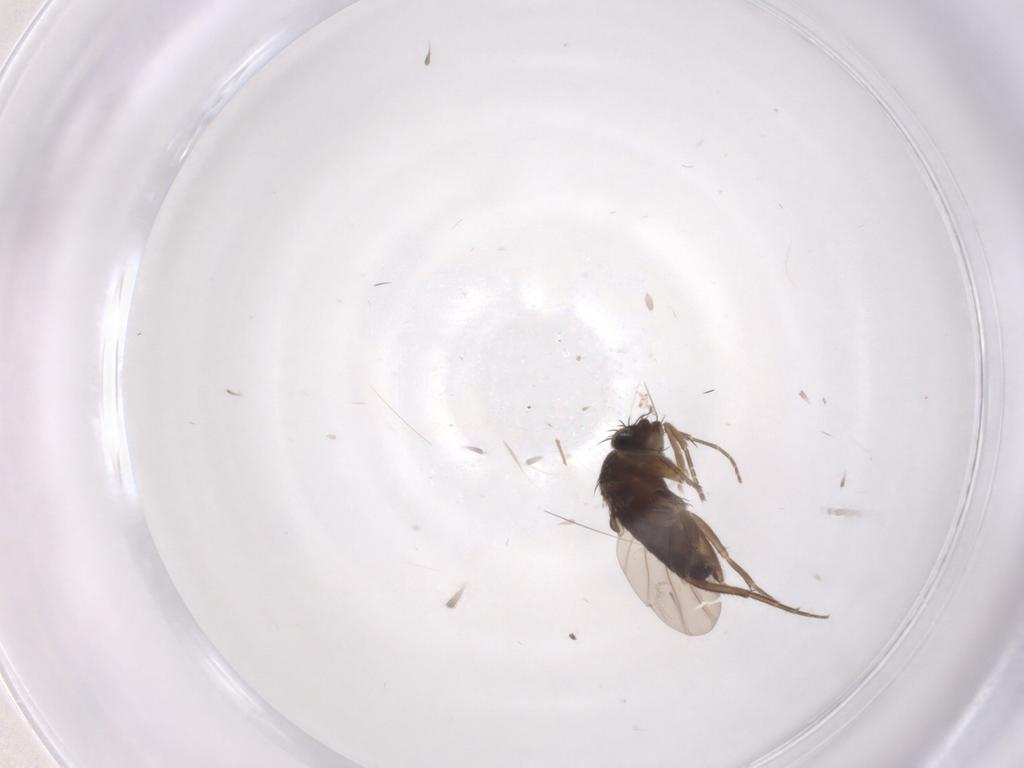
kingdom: Animalia
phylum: Arthropoda
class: Insecta
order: Diptera
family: Phoridae
